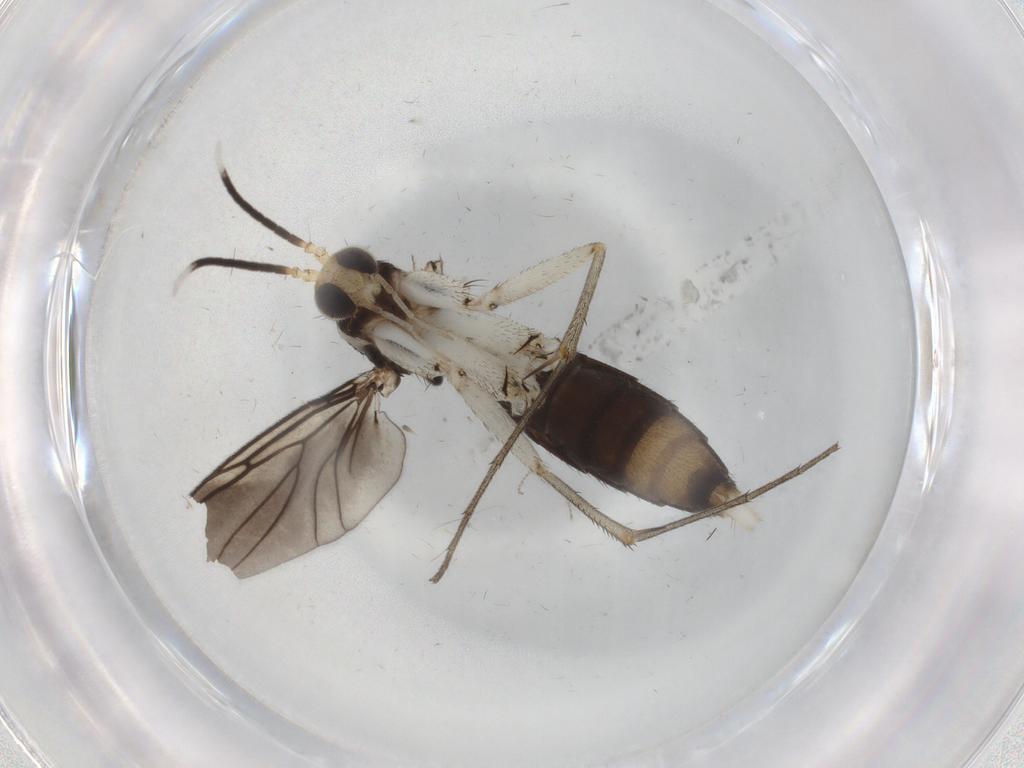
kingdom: Animalia
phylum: Arthropoda
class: Insecta
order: Diptera
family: Mycetophilidae
